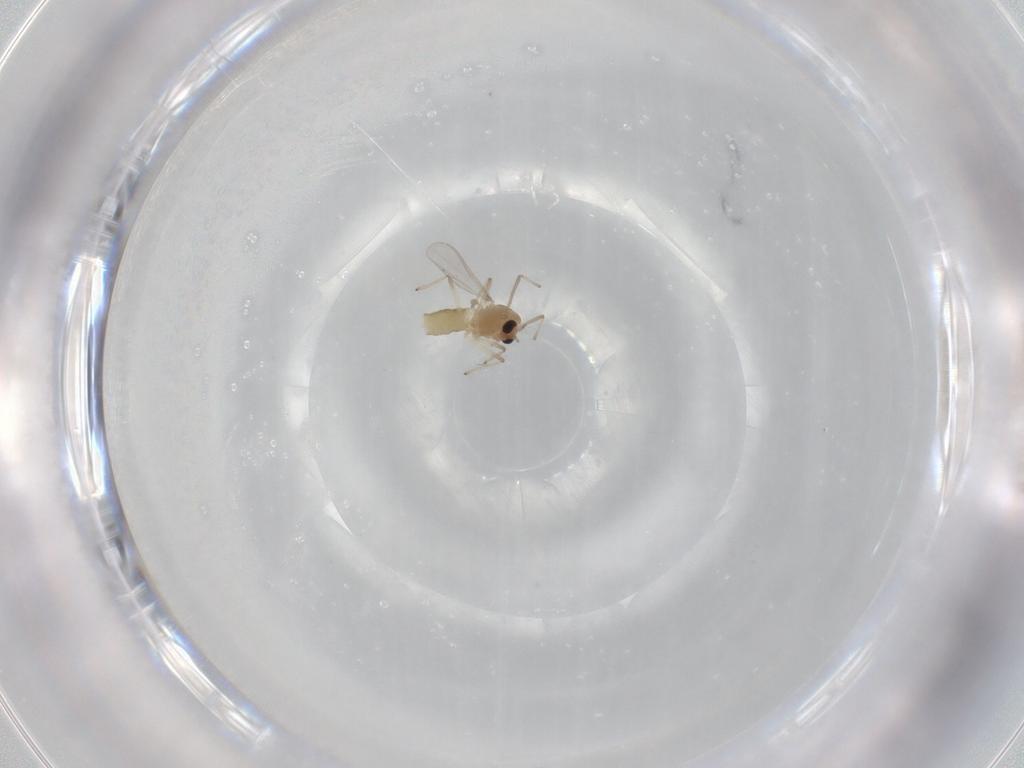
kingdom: Animalia
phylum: Arthropoda
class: Insecta
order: Diptera
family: Chironomidae
